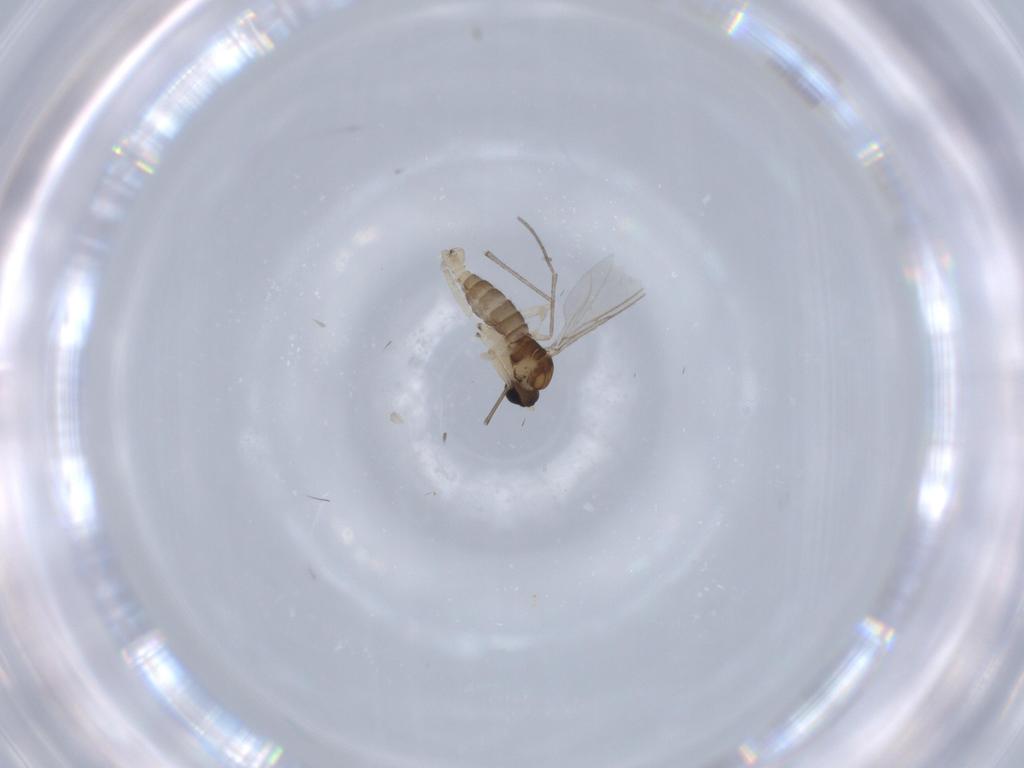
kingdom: Animalia
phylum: Arthropoda
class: Insecta
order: Diptera
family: Sciaridae
